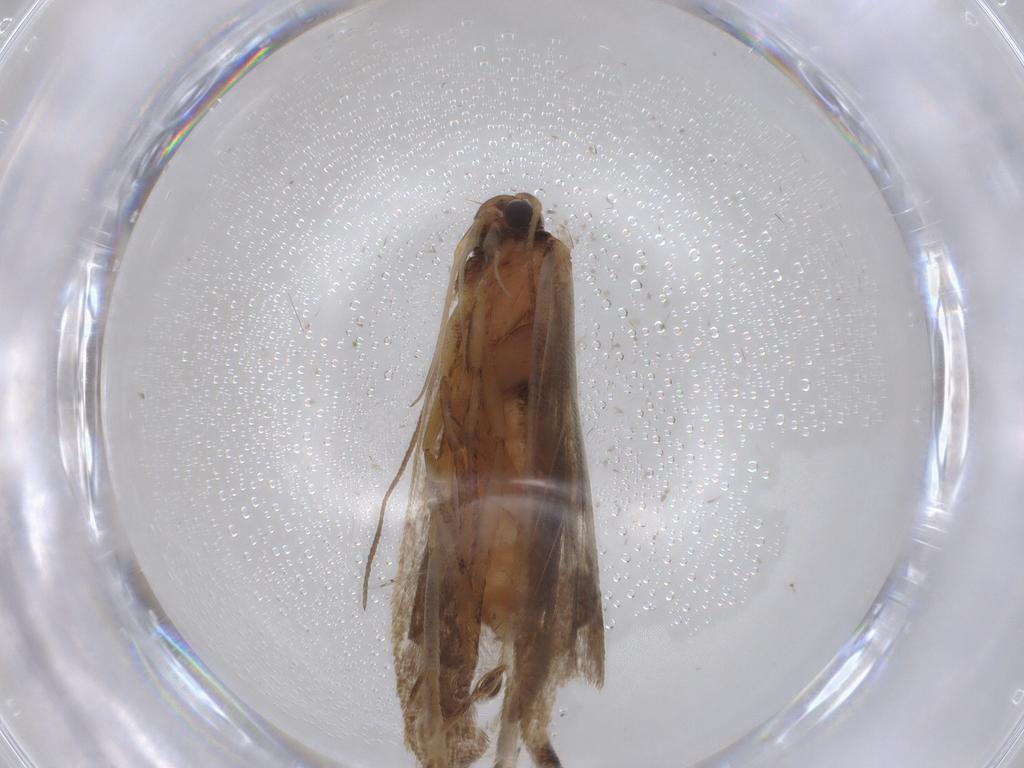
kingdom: Animalia
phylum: Arthropoda
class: Insecta
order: Lepidoptera
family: Gelechiidae
